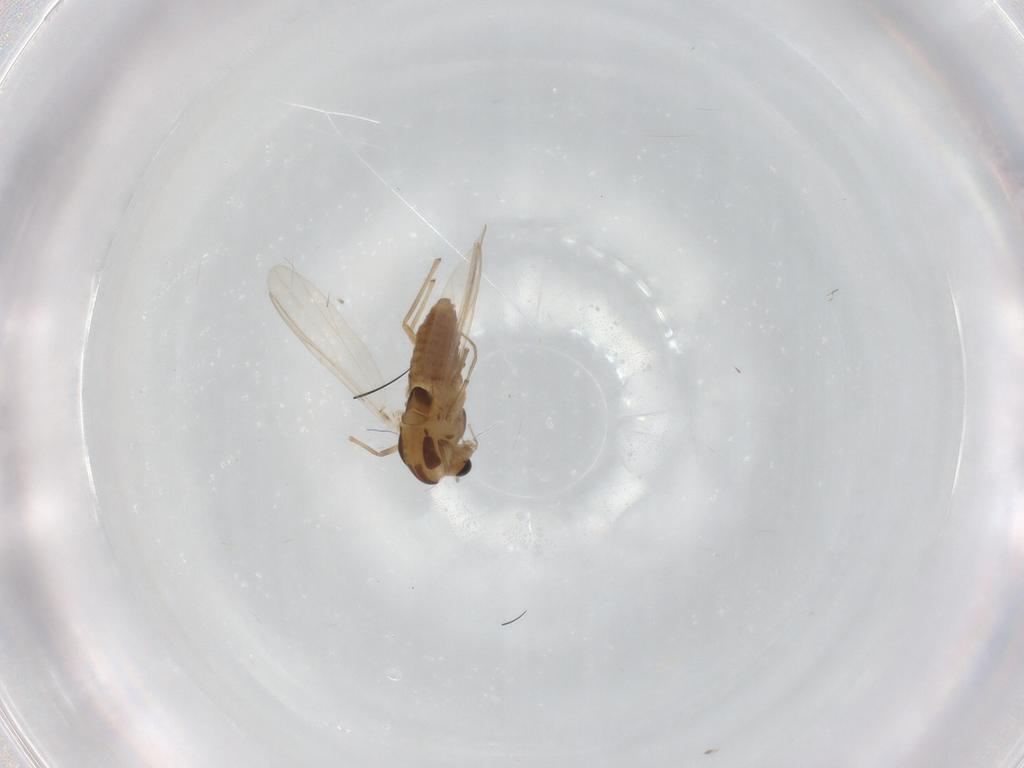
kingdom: Animalia
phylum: Arthropoda
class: Insecta
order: Diptera
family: Chironomidae
